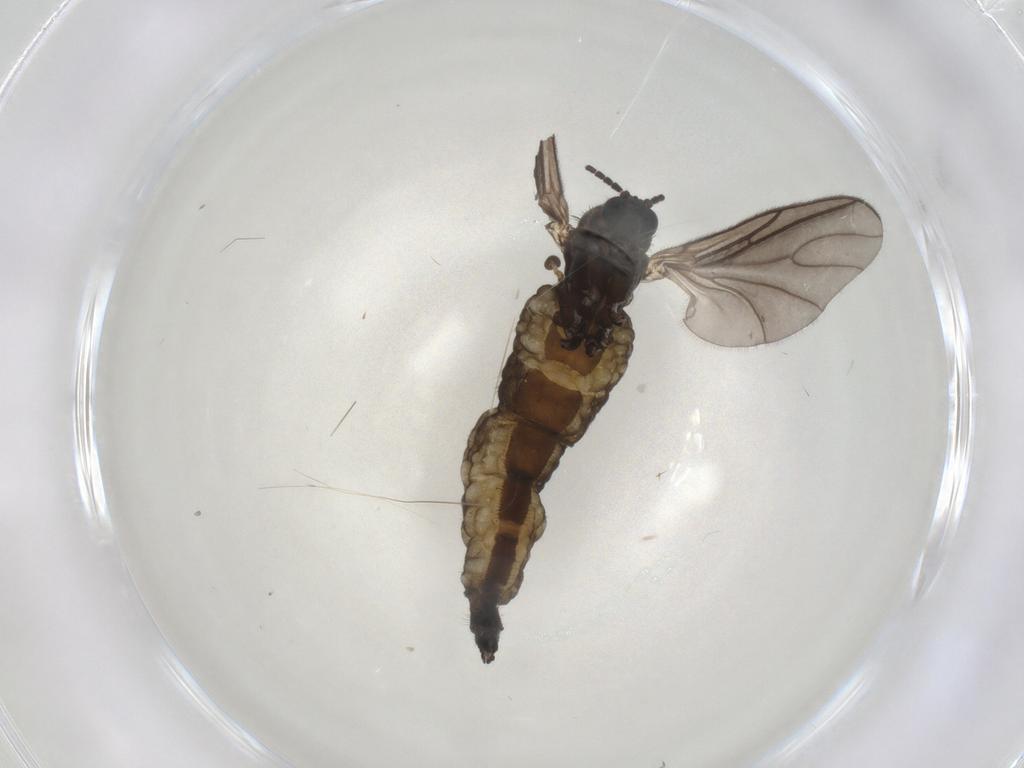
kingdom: Animalia
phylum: Arthropoda
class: Insecta
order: Diptera
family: Sciaridae
